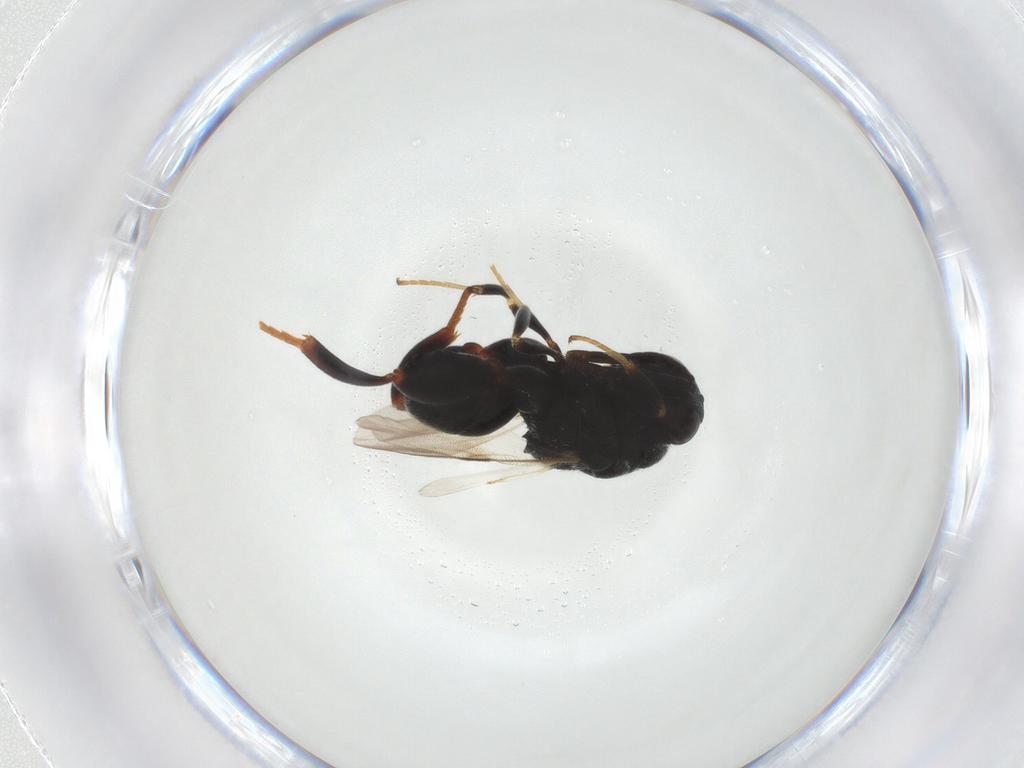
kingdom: Animalia
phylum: Arthropoda
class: Insecta
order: Hymenoptera
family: Chalcididae
